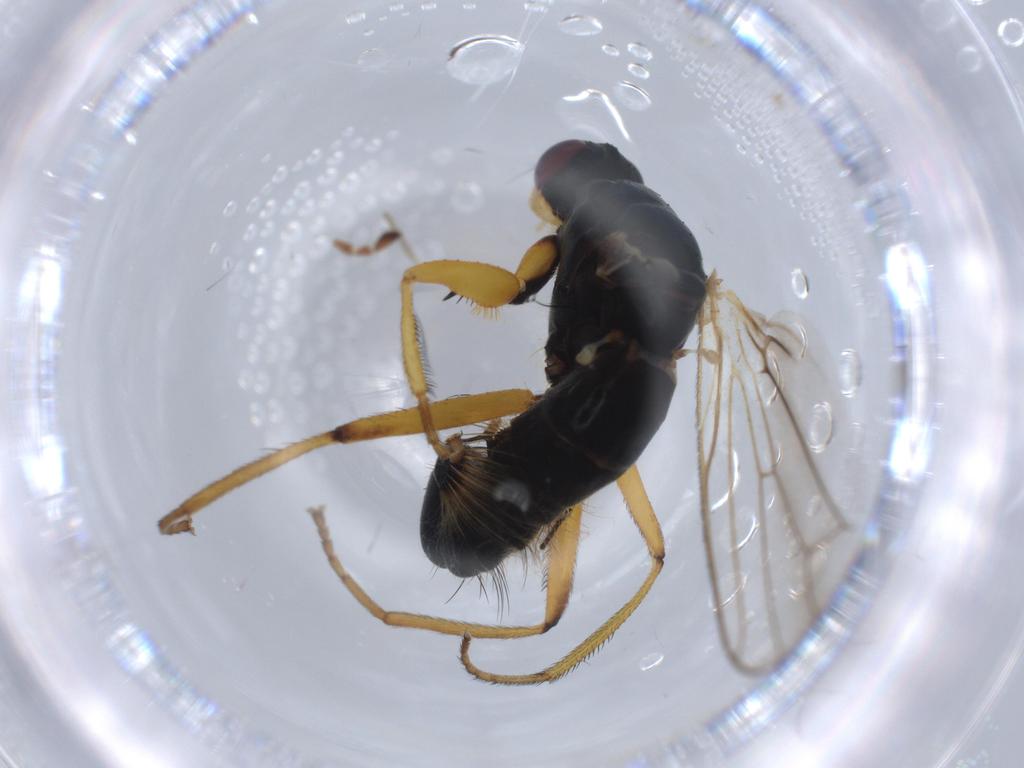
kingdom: Animalia
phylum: Arthropoda
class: Insecta
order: Diptera
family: Scathophagidae
